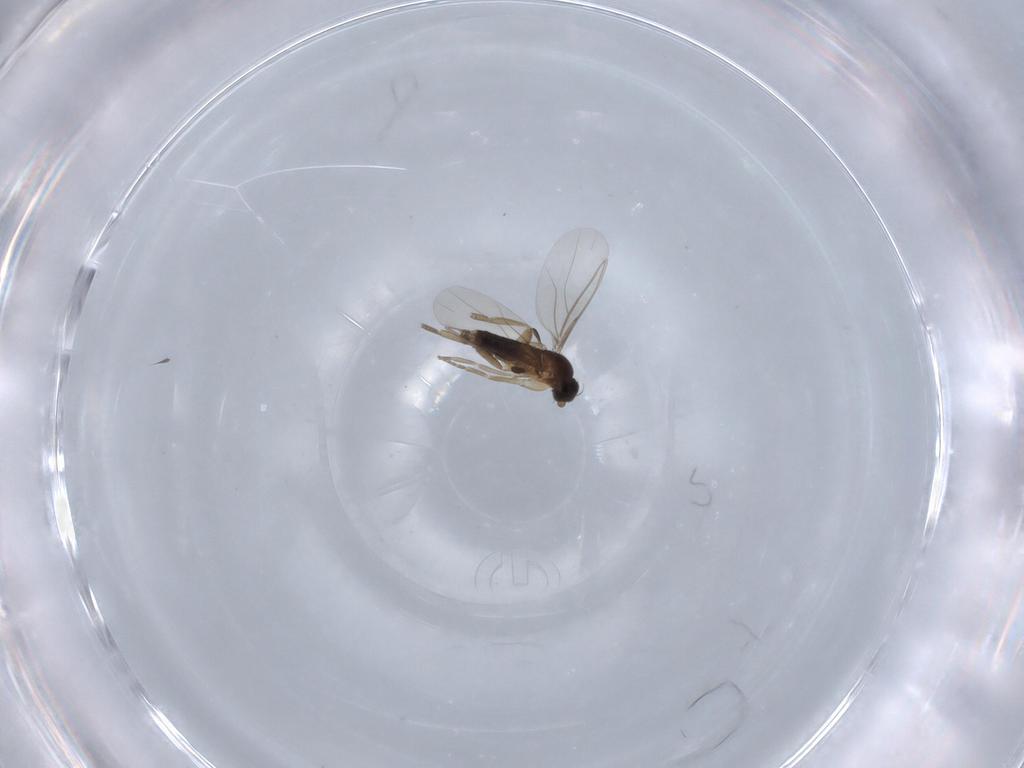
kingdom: Animalia
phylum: Arthropoda
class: Insecta
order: Diptera
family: Phoridae
